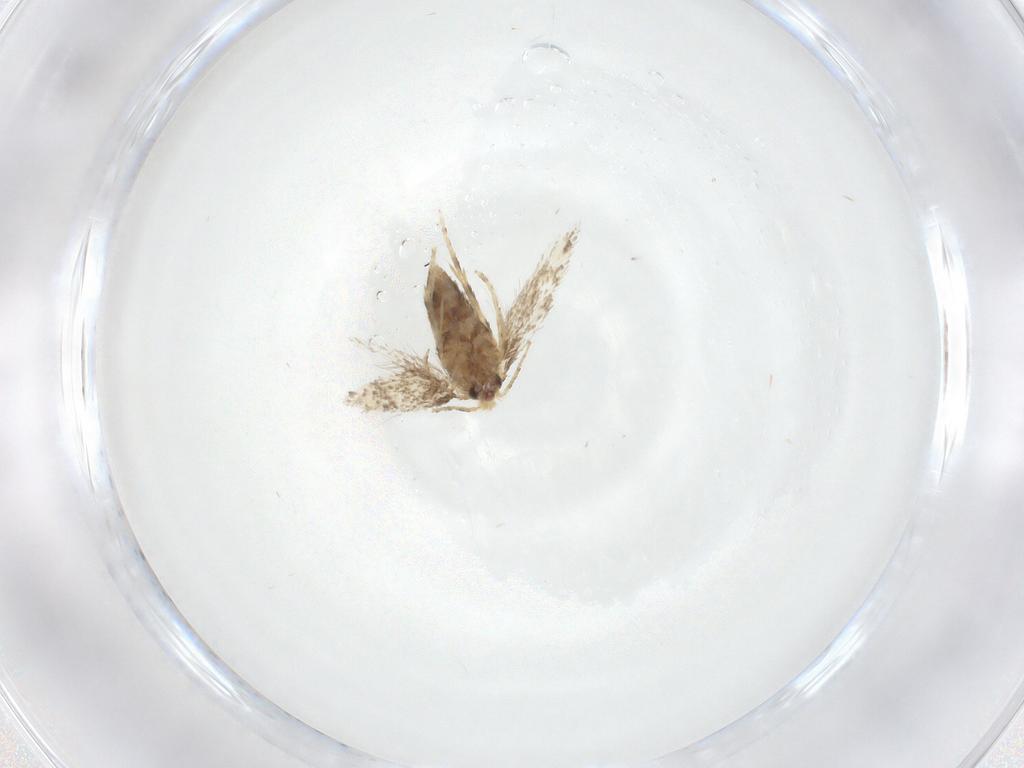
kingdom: Animalia
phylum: Arthropoda
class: Insecta
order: Lepidoptera
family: Nepticulidae
